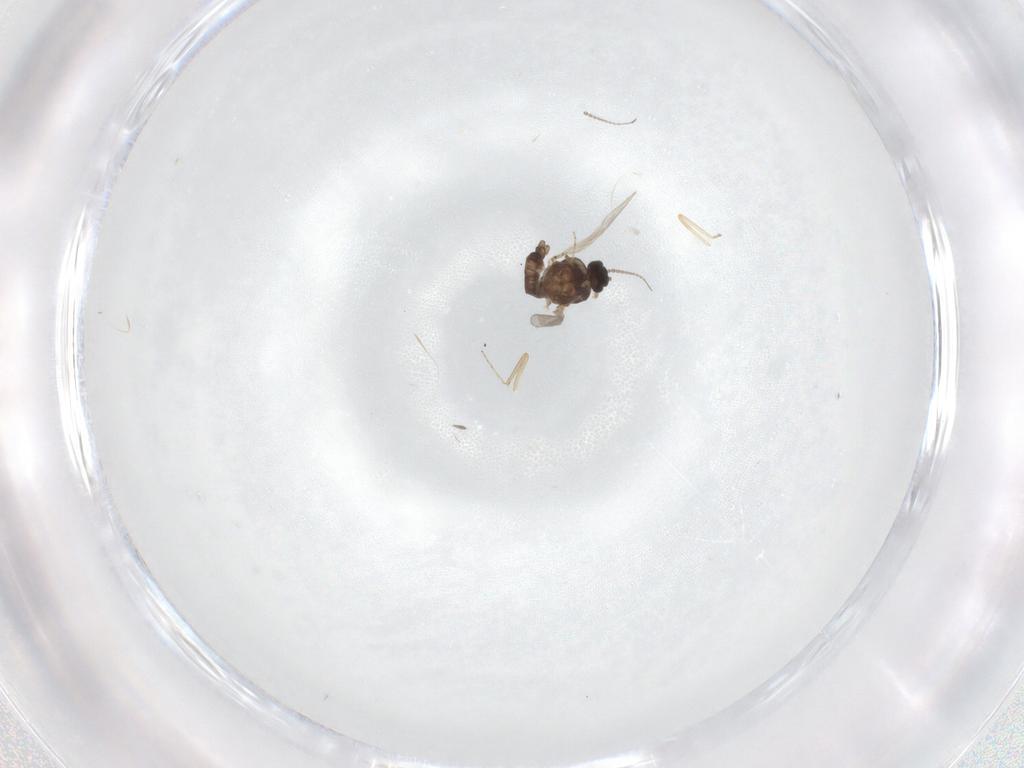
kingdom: Animalia
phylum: Arthropoda
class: Insecta
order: Diptera
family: Ceratopogonidae
